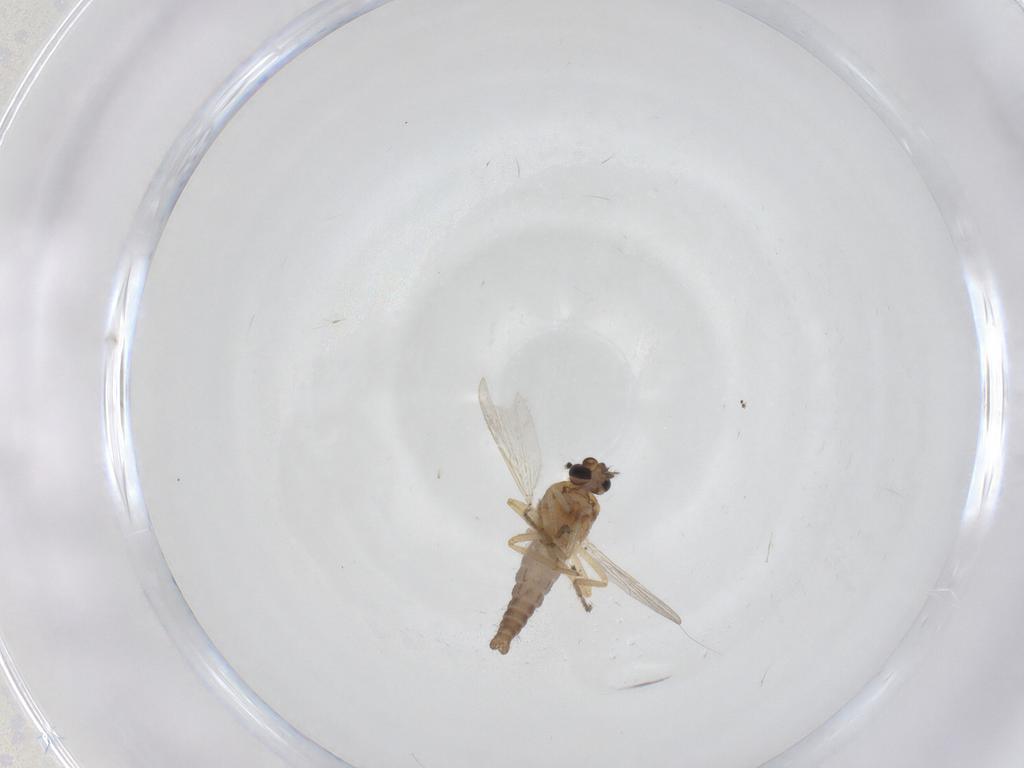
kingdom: Animalia
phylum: Arthropoda
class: Insecta
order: Diptera
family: Ceratopogonidae
